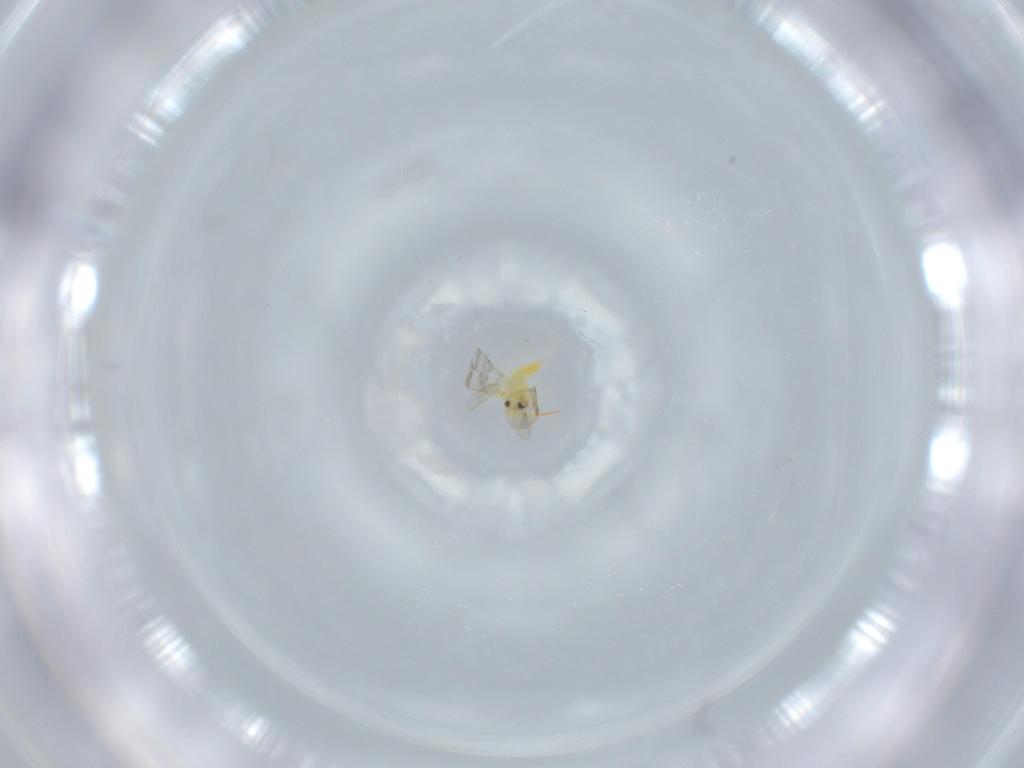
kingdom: Animalia
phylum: Arthropoda
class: Insecta
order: Hemiptera
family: Aleyrodidae
